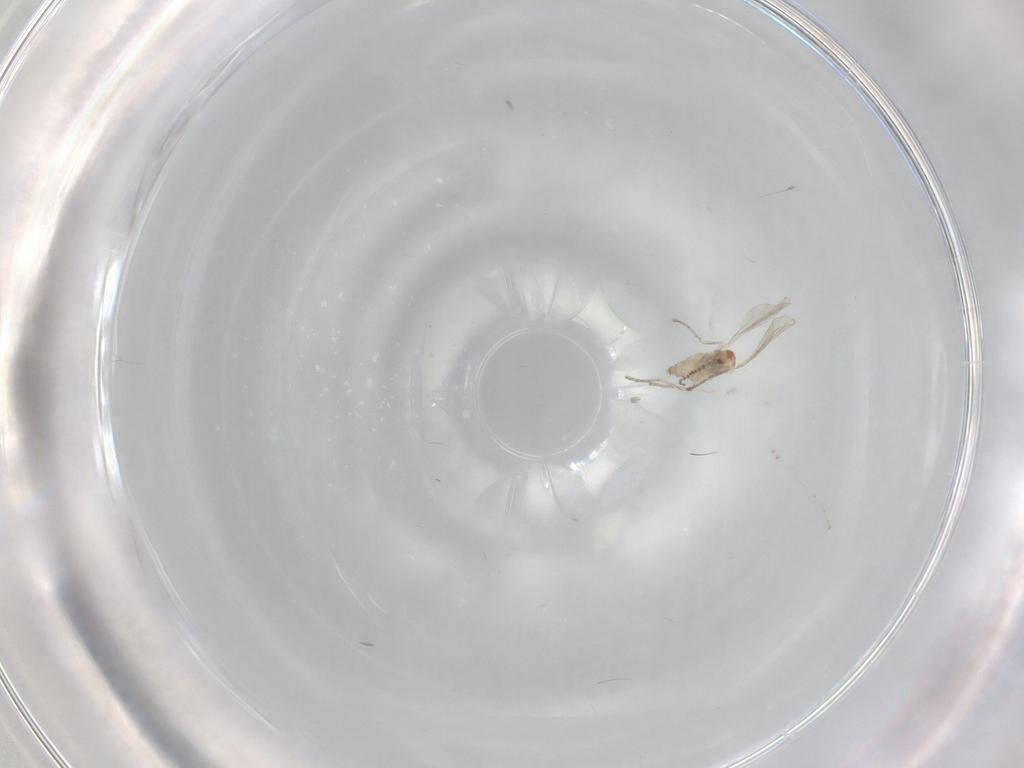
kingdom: Animalia
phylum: Arthropoda
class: Insecta
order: Diptera
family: Cecidomyiidae
